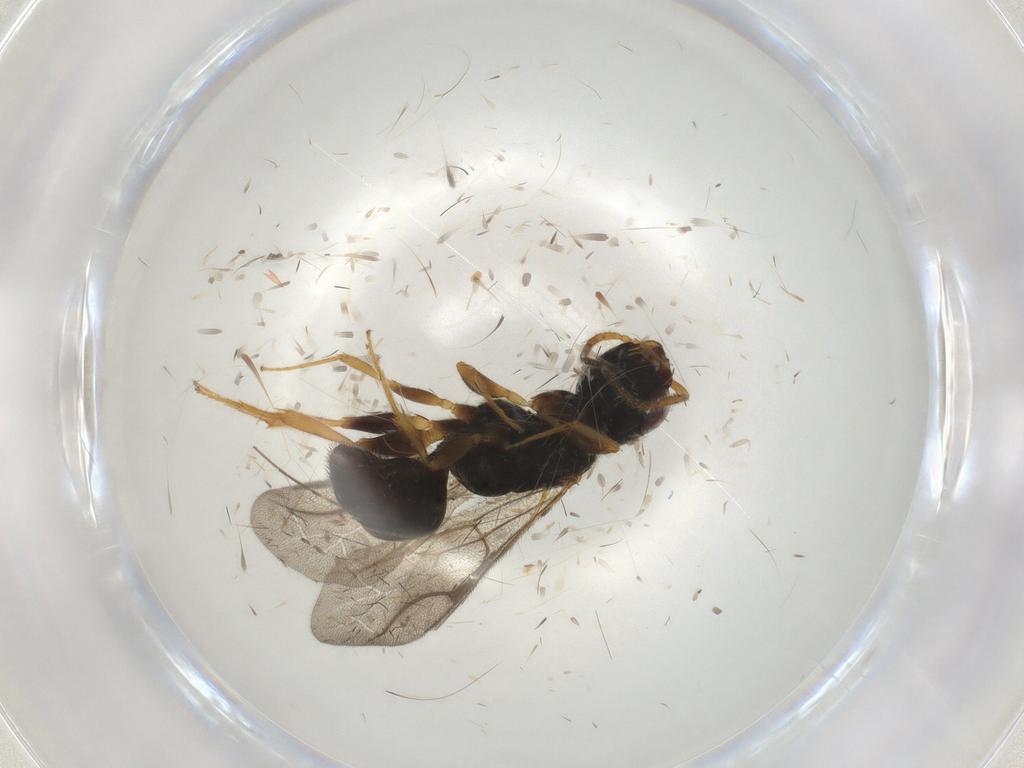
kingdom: Animalia
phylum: Arthropoda
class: Insecta
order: Hymenoptera
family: Bethylidae
